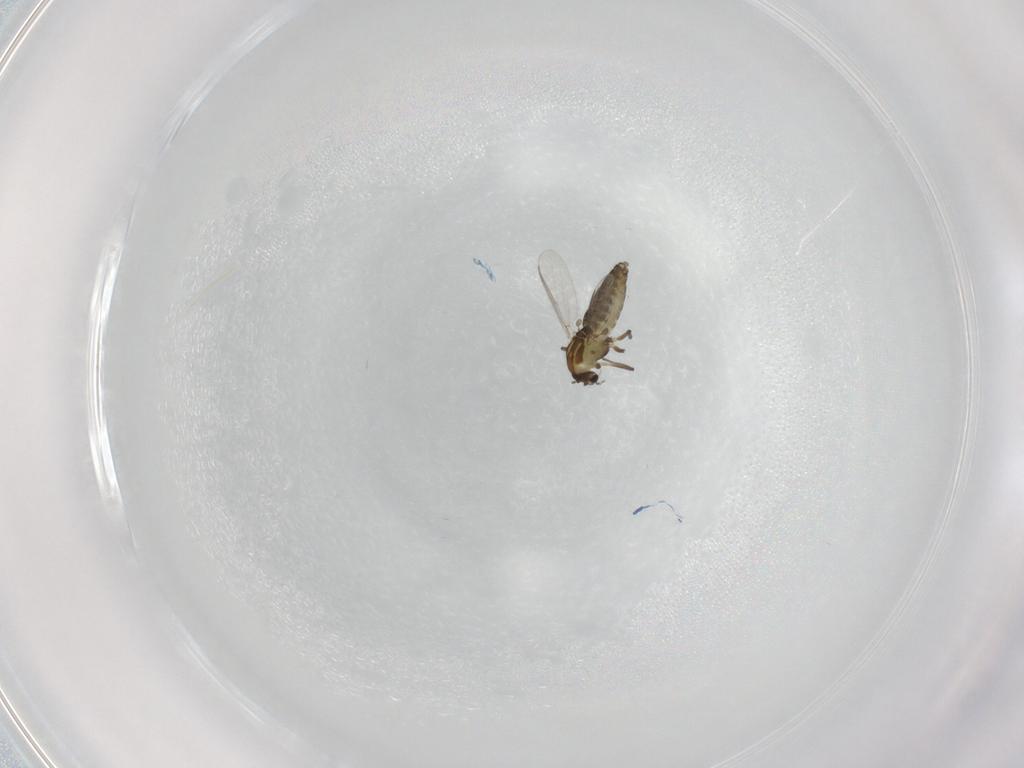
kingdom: Animalia
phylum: Arthropoda
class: Insecta
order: Diptera
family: Chironomidae
